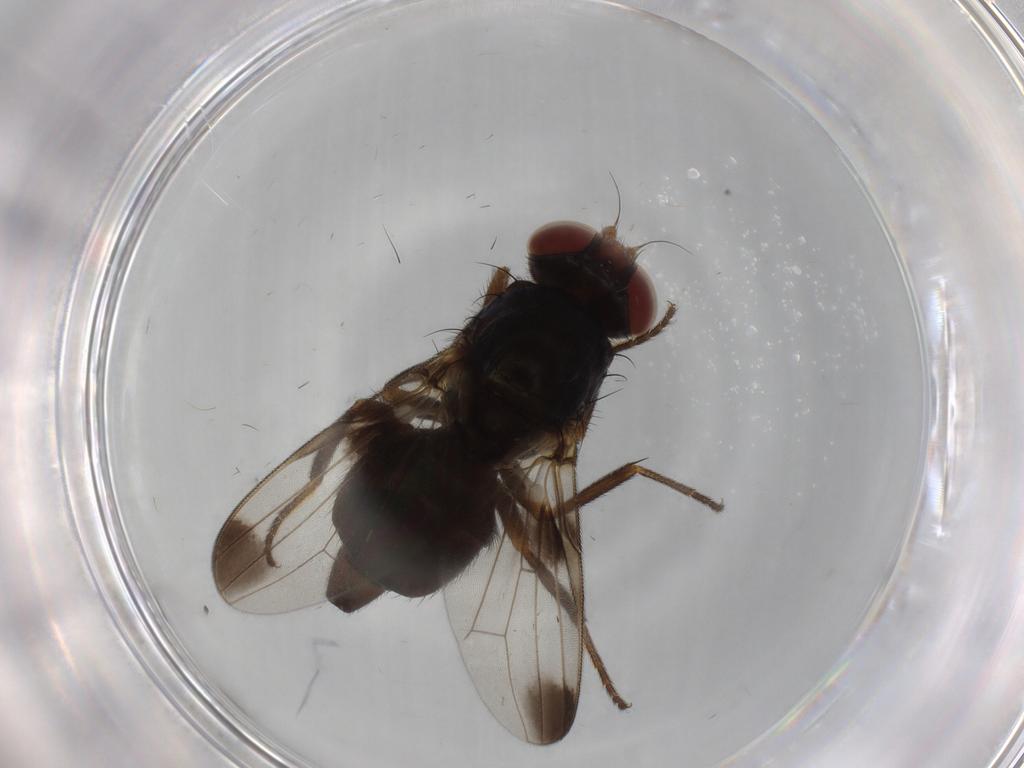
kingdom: Animalia
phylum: Arthropoda
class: Insecta
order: Diptera
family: Ulidiidae
